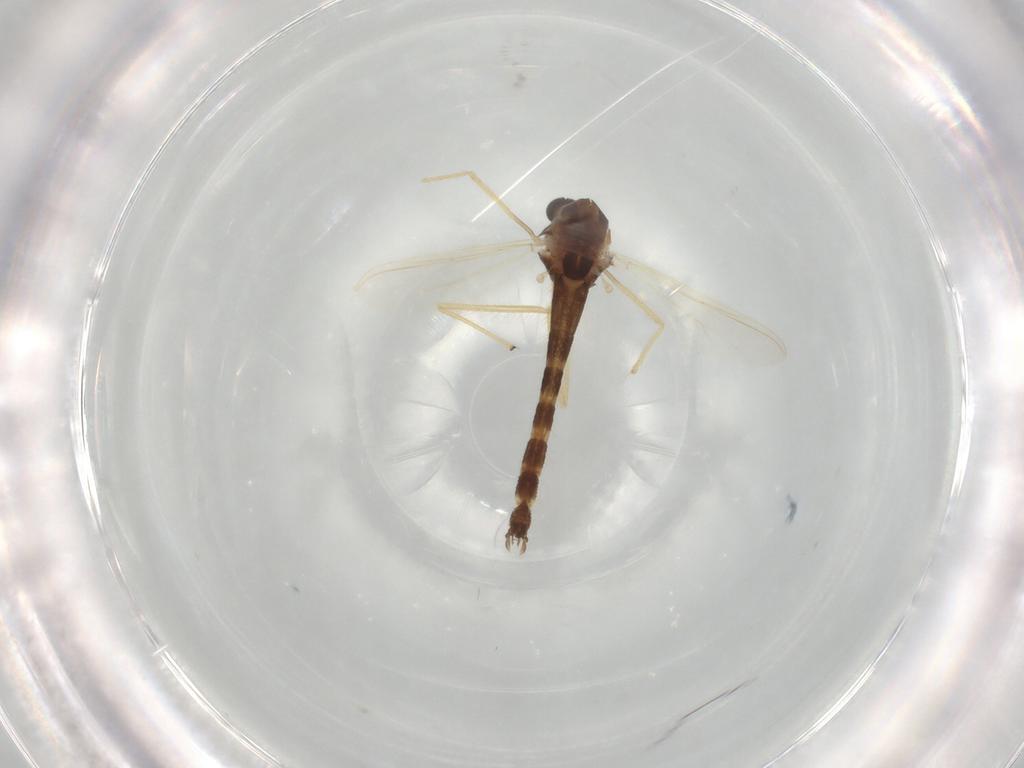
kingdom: Animalia
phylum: Arthropoda
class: Insecta
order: Diptera
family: Chironomidae
